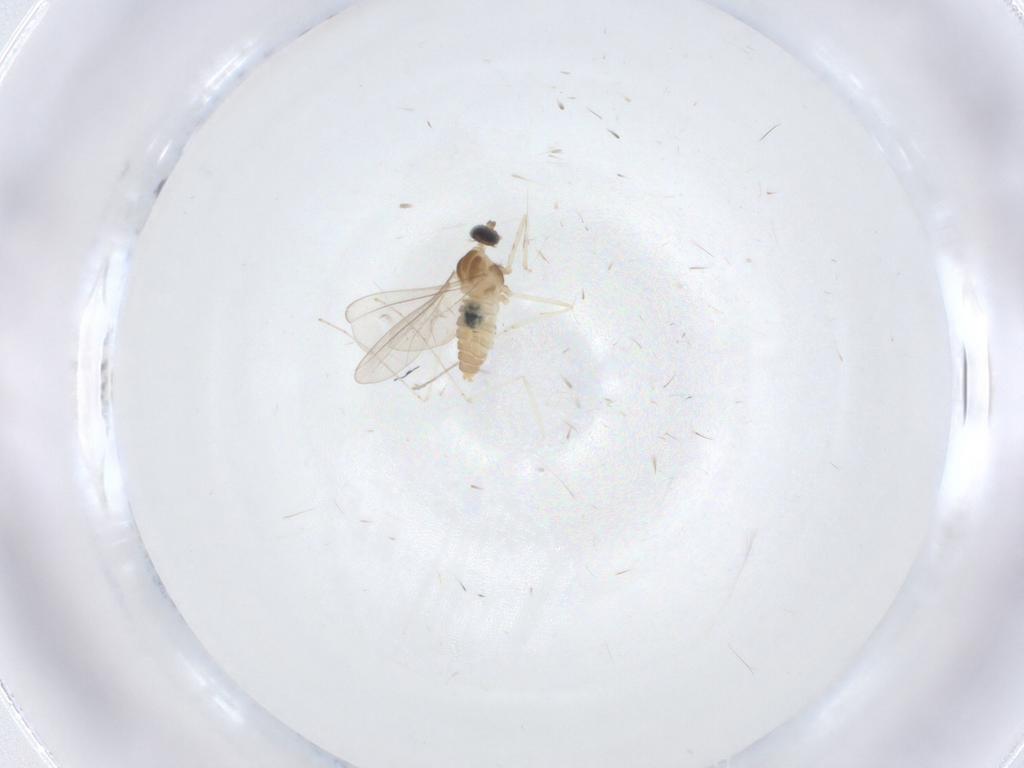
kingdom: Animalia
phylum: Arthropoda
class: Insecta
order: Diptera
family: Cecidomyiidae
